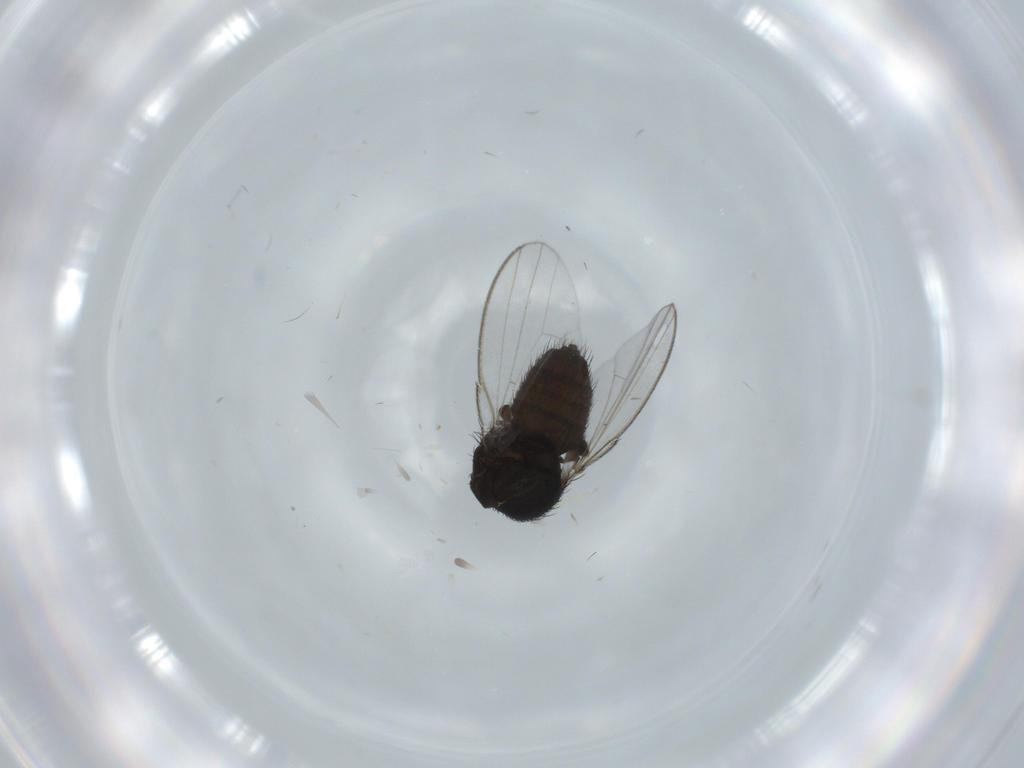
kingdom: Animalia
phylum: Arthropoda
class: Insecta
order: Diptera
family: Milichiidae
